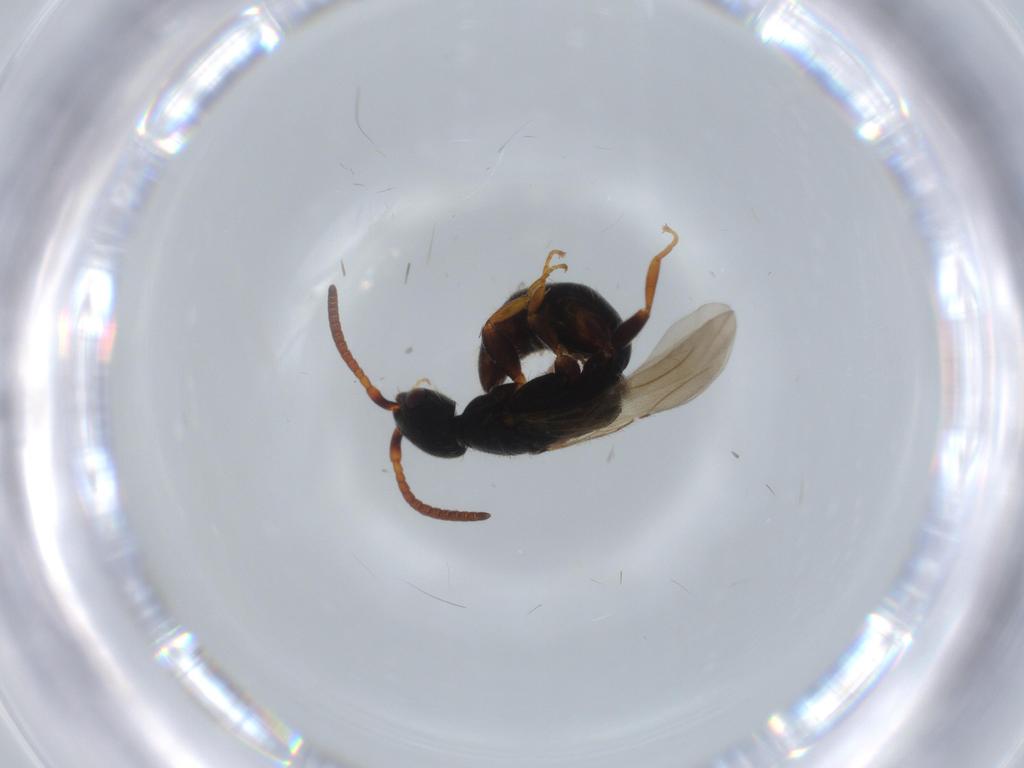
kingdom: Animalia
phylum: Arthropoda
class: Insecta
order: Hymenoptera
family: Bethylidae
